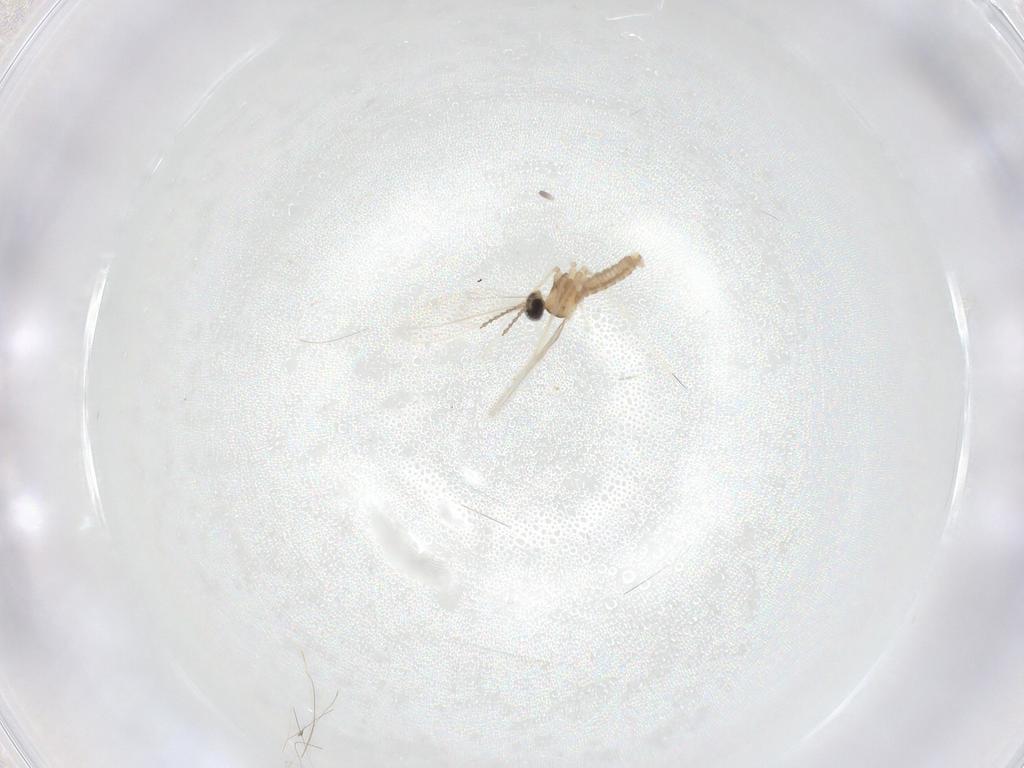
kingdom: Animalia
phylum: Arthropoda
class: Insecta
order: Diptera
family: Cecidomyiidae
